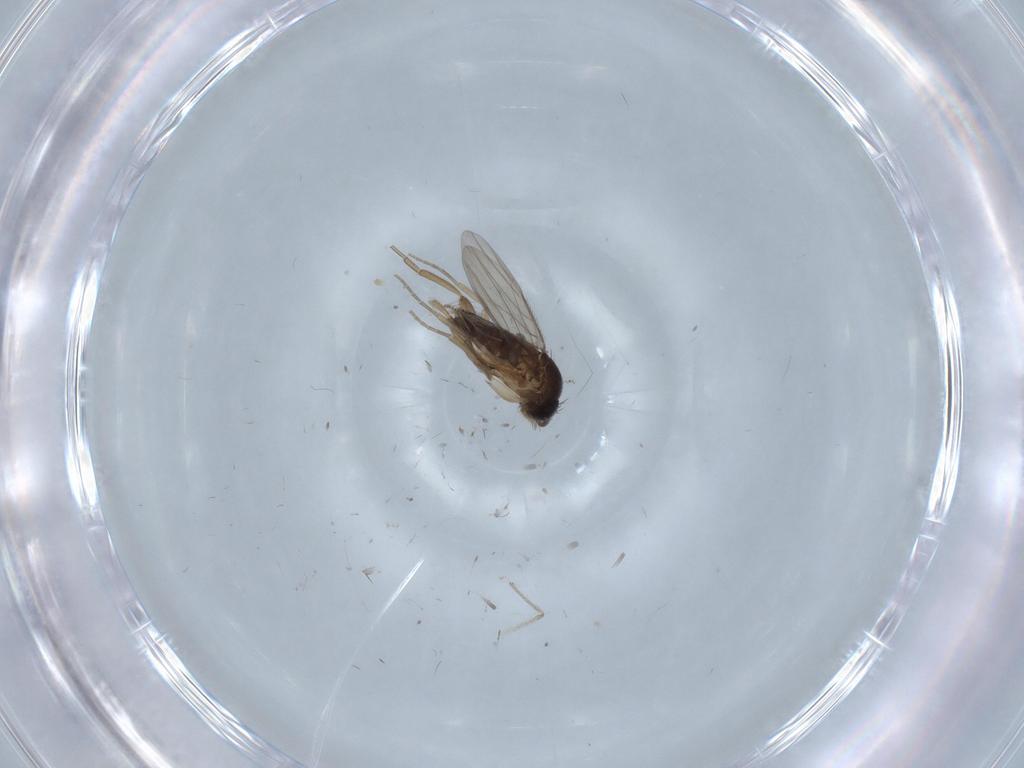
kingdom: Animalia
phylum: Arthropoda
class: Insecta
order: Diptera
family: Phoridae
